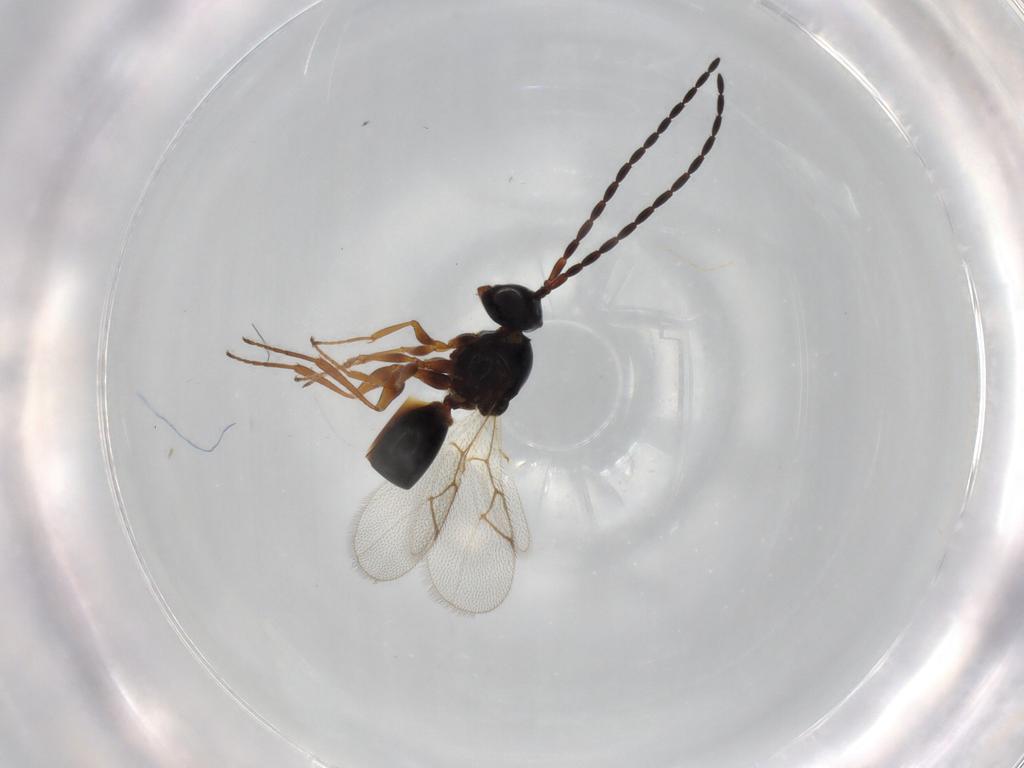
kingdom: Animalia
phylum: Arthropoda
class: Insecta
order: Hymenoptera
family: Figitidae
